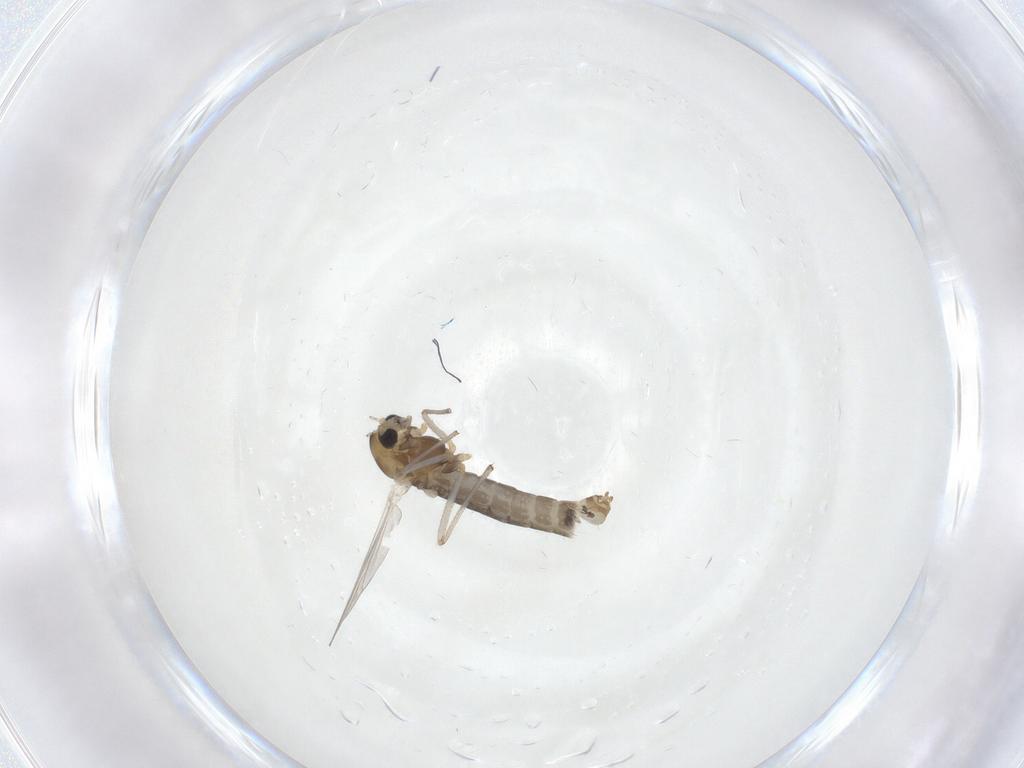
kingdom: Animalia
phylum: Arthropoda
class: Insecta
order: Diptera
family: Chironomidae
